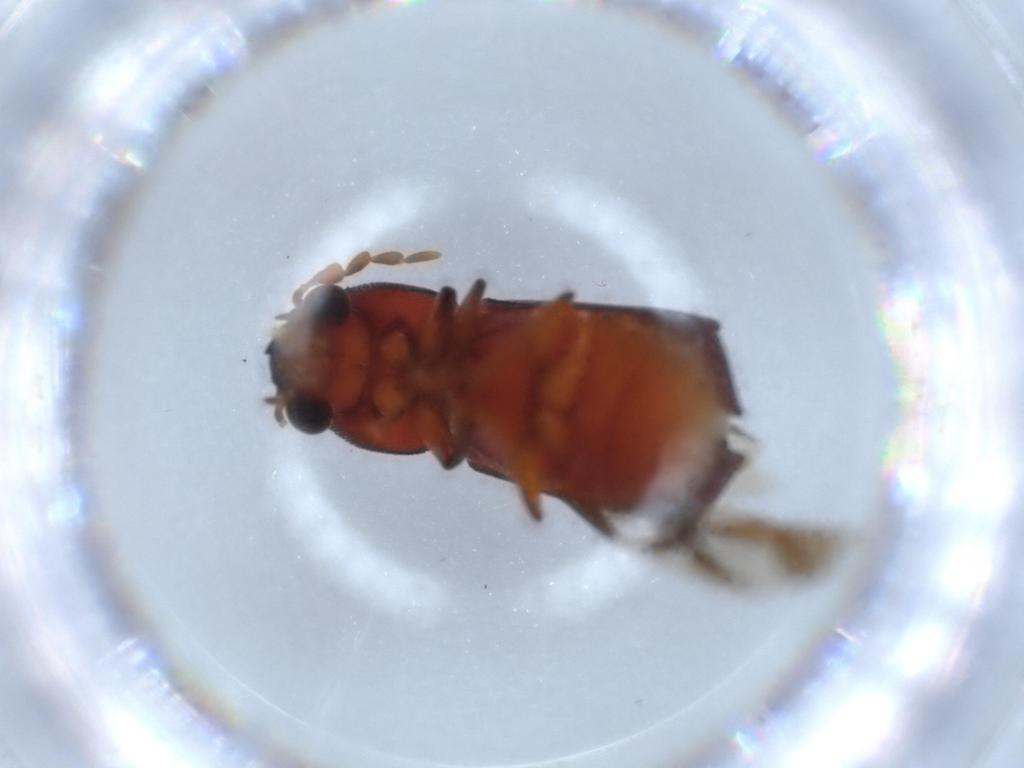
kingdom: Animalia
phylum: Arthropoda
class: Insecta
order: Coleoptera
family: Bostrichidae
